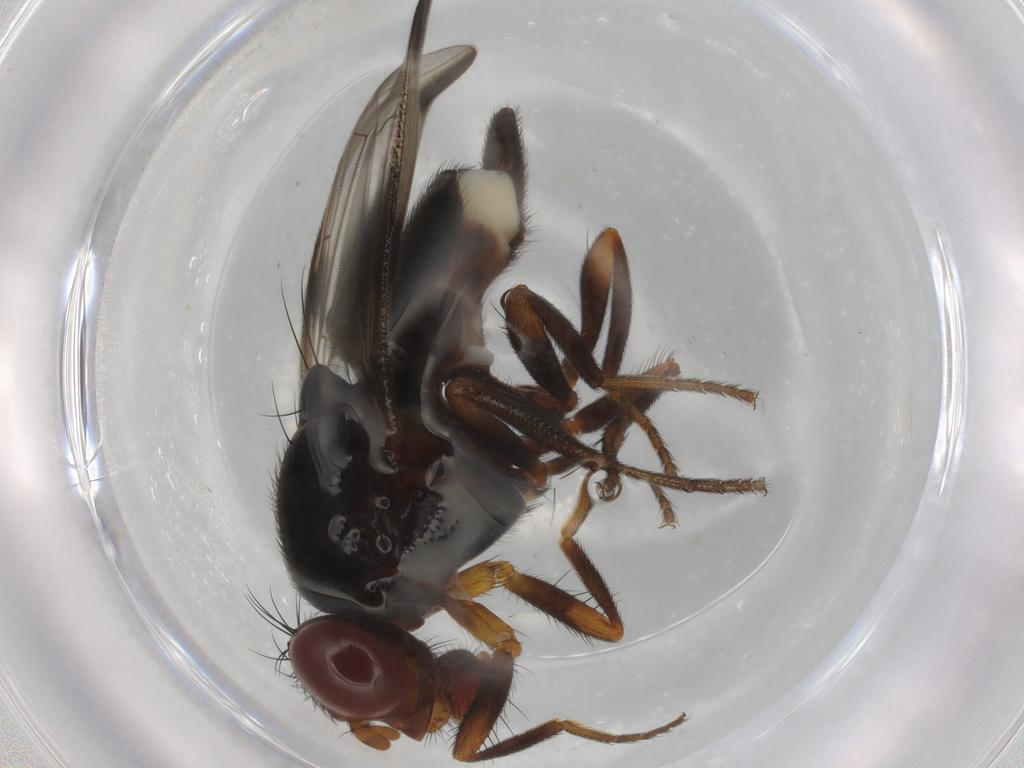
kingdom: Animalia
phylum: Arthropoda
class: Insecta
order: Diptera
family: Ulidiidae
